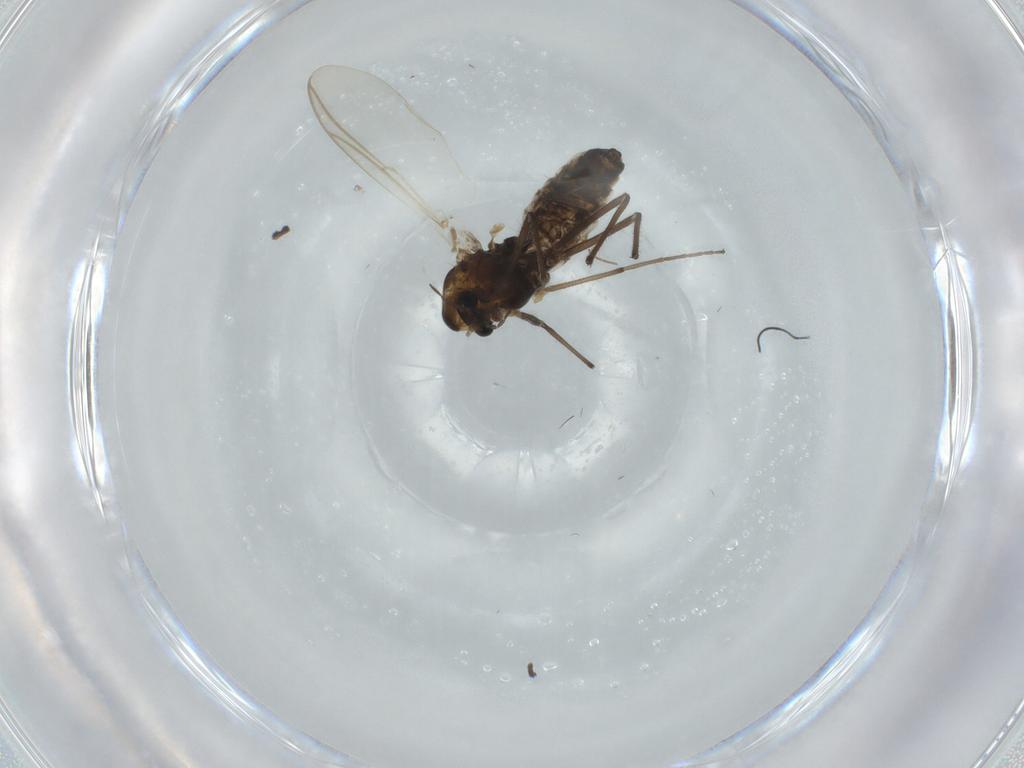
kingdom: Animalia
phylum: Arthropoda
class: Insecta
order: Diptera
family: Chironomidae
